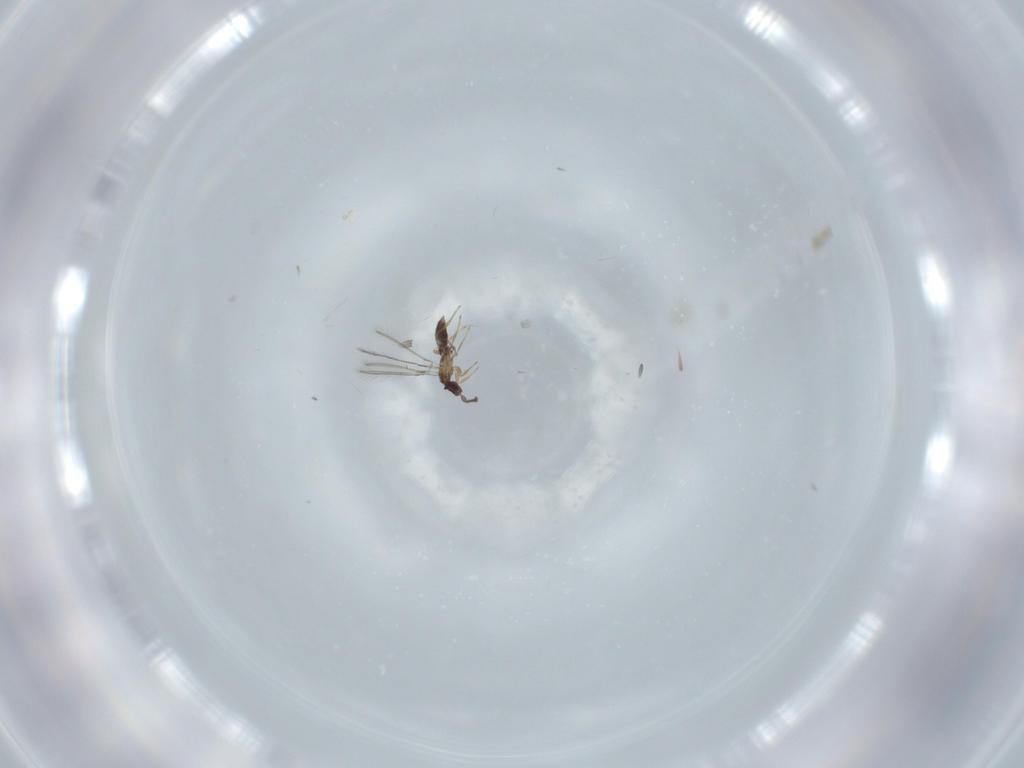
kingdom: Animalia
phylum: Arthropoda
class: Insecta
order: Hymenoptera
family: Mymaridae
